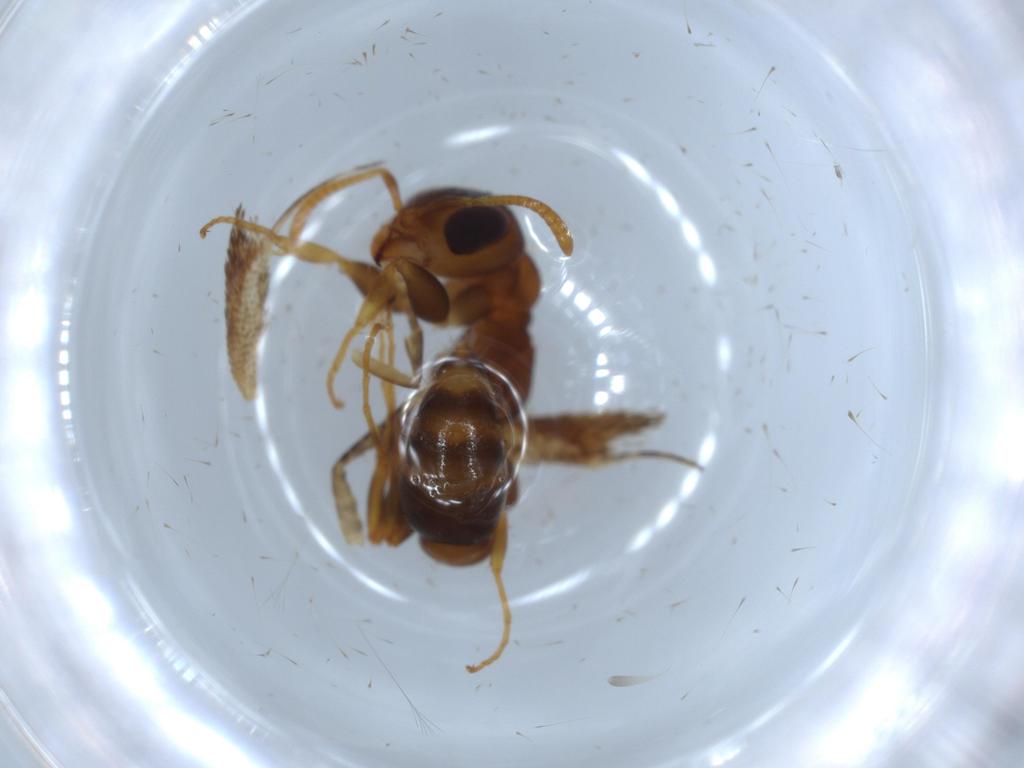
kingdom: Animalia
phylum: Arthropoda
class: Insecta
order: Hymenoptera
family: Formicidae
